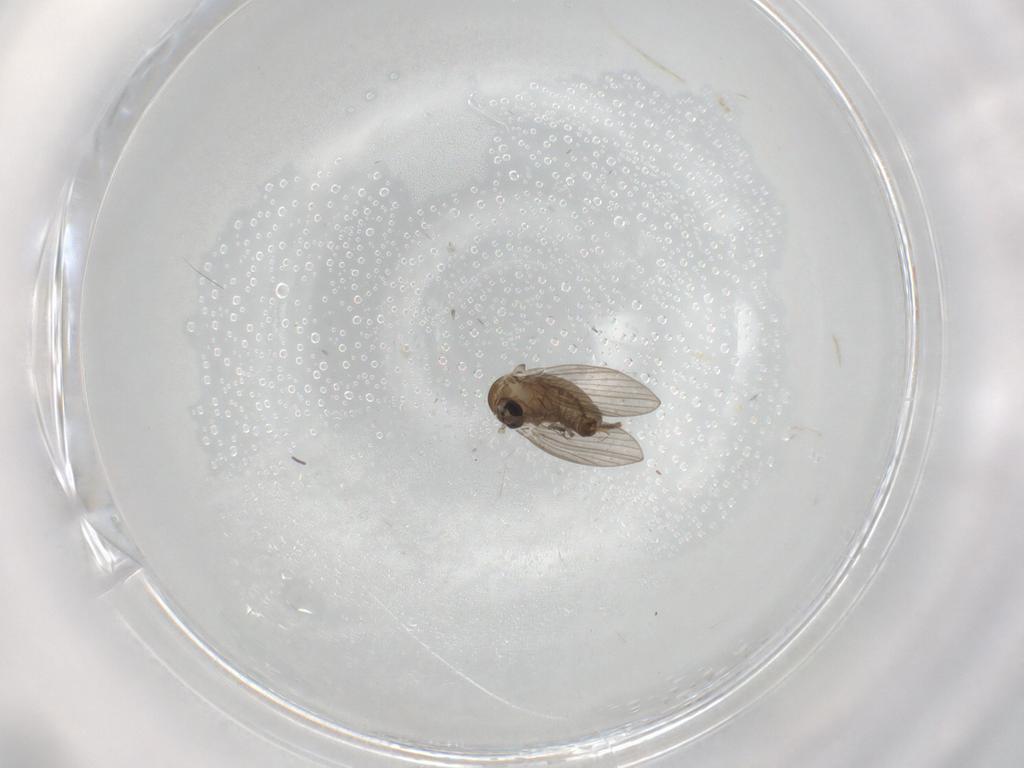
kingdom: Animalia
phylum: Arthropoda
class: Insecta
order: Diptera
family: Psychodidae
